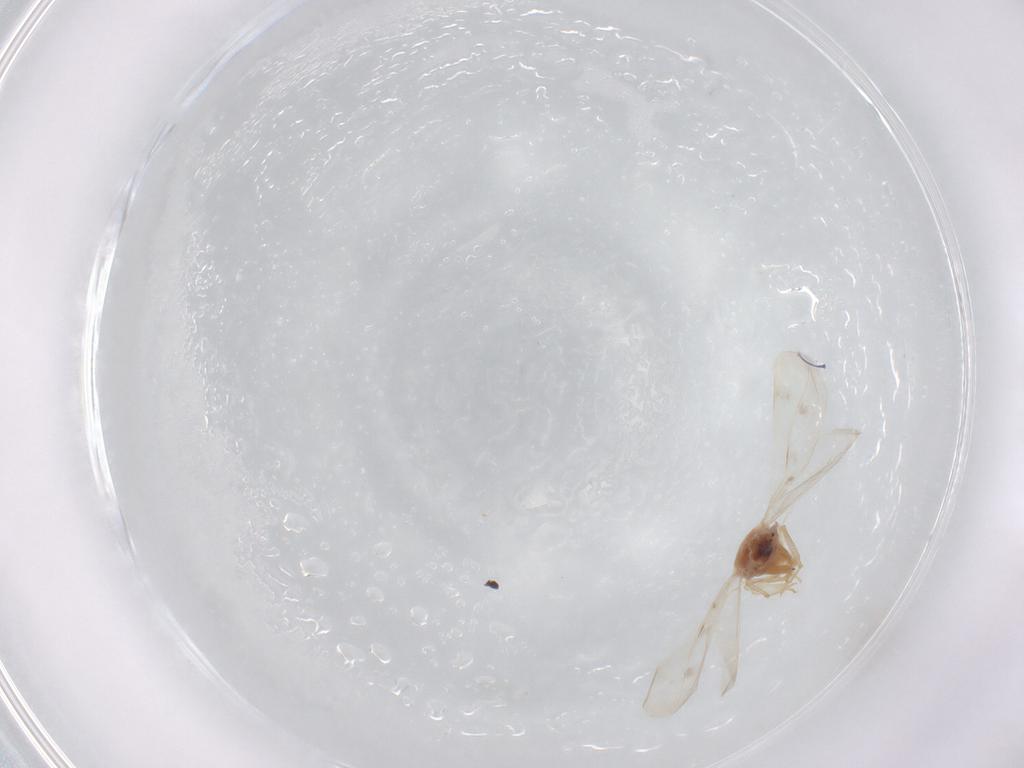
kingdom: Animalia
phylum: Arthropoda
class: Insecta
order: Hemiptera
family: Aleyrodidae
